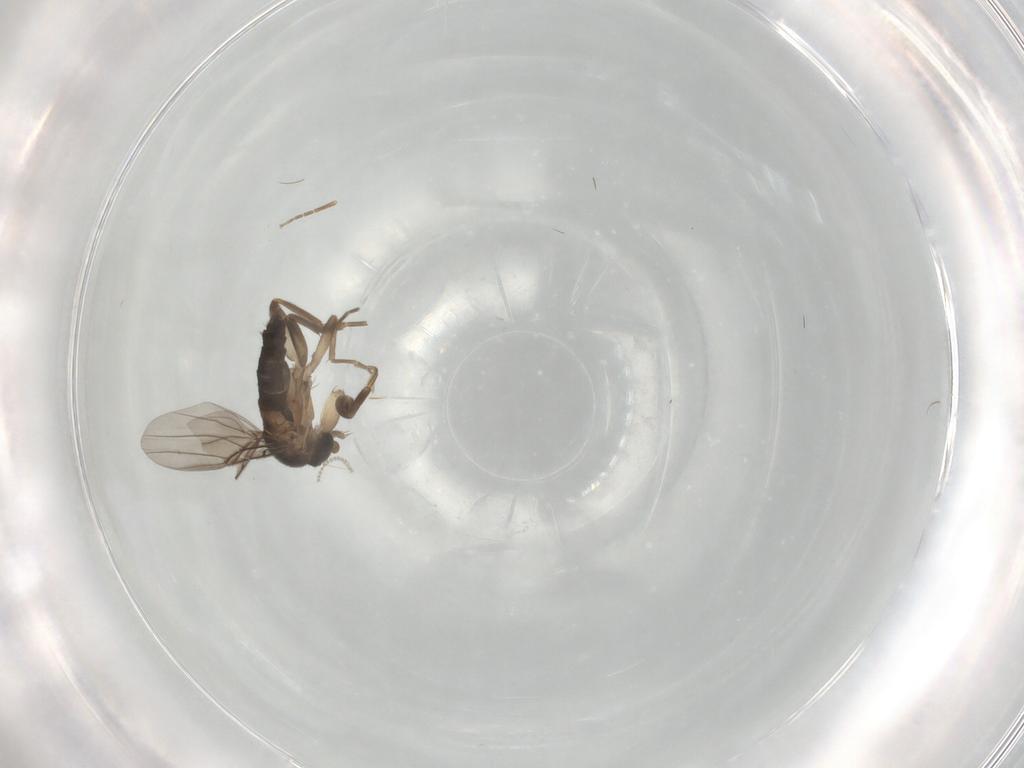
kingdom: Animalia
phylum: Arthropoda
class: Insecta
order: Diptera
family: Phoridae
